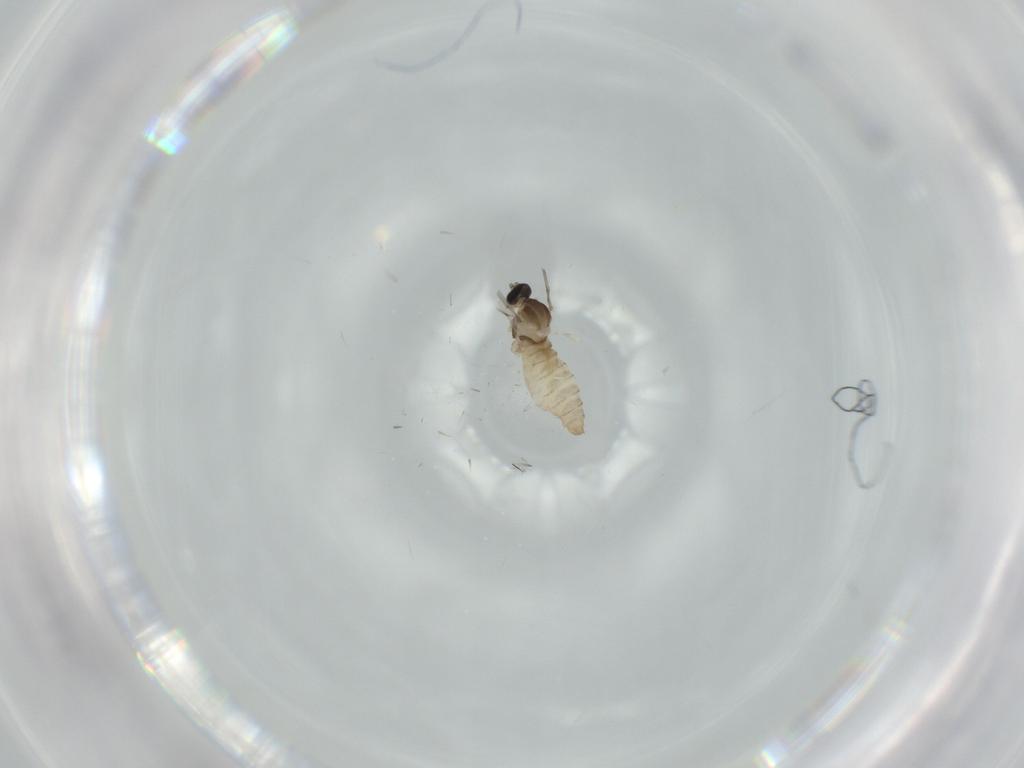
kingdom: Animalia
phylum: Arthropoda
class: Insecta
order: Diptera
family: Cecidomyiidae
